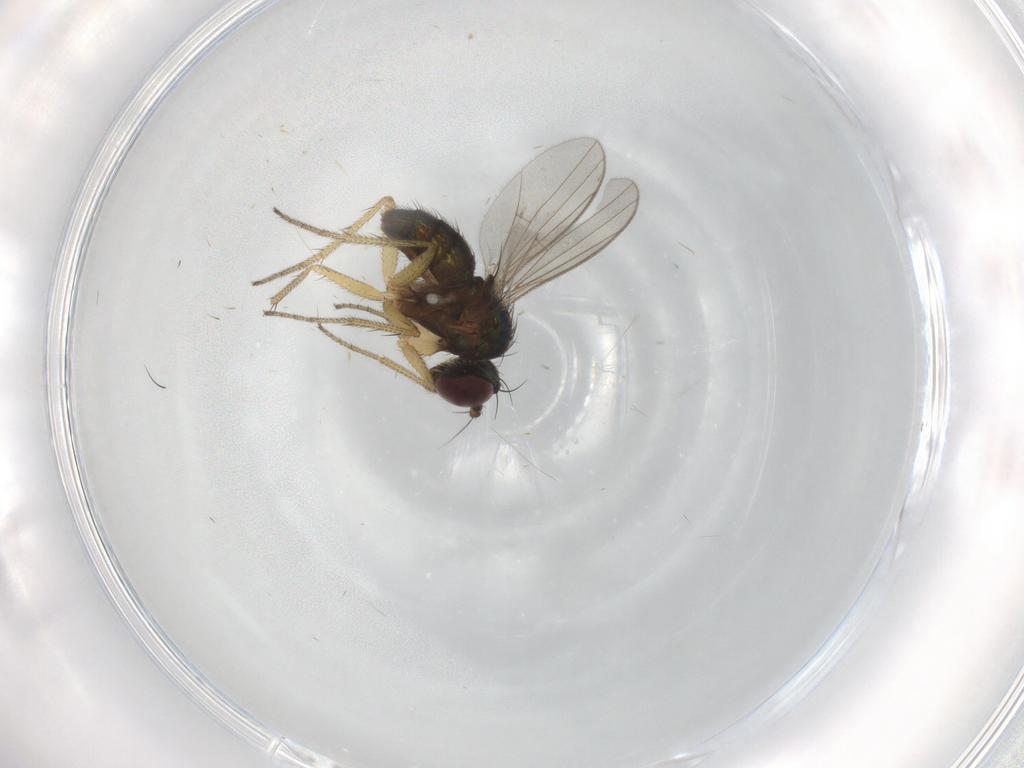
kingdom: Animalia
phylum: Arthropoda
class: Insecta
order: Diptera
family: Dolichopodidae
